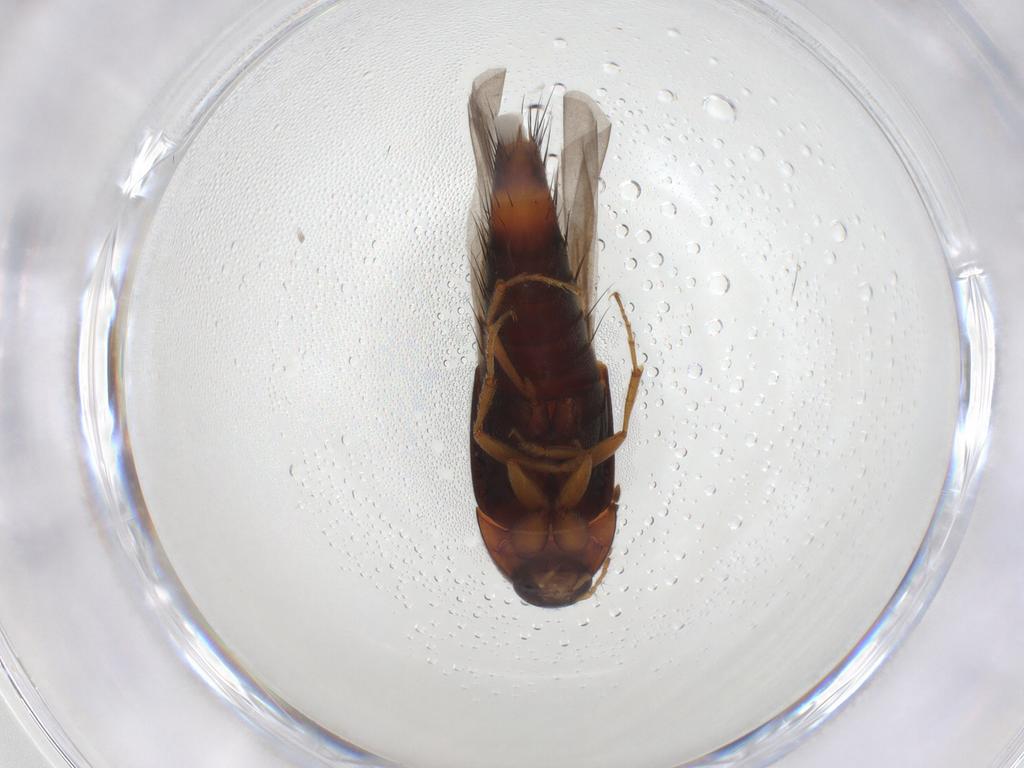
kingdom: Animalia
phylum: Arthropoda
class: Insecta
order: Coleoptera
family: Staphylinidae
